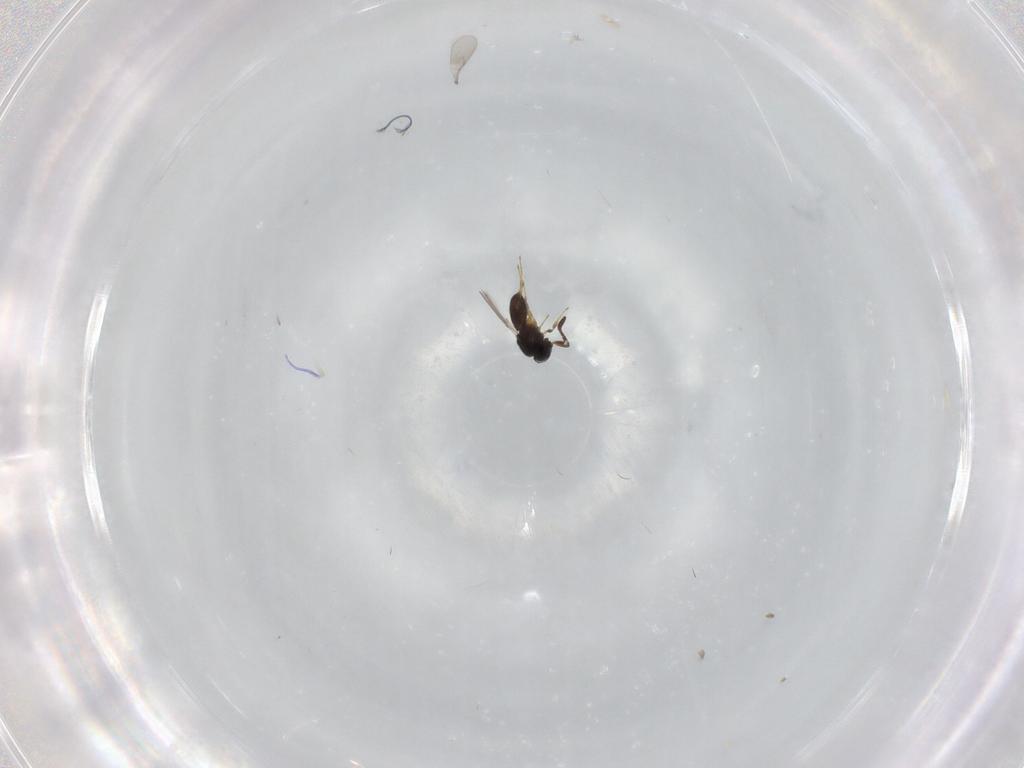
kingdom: Animalia
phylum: Arthropoda
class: Insecta
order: Hymenoptera
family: Scelionidae
